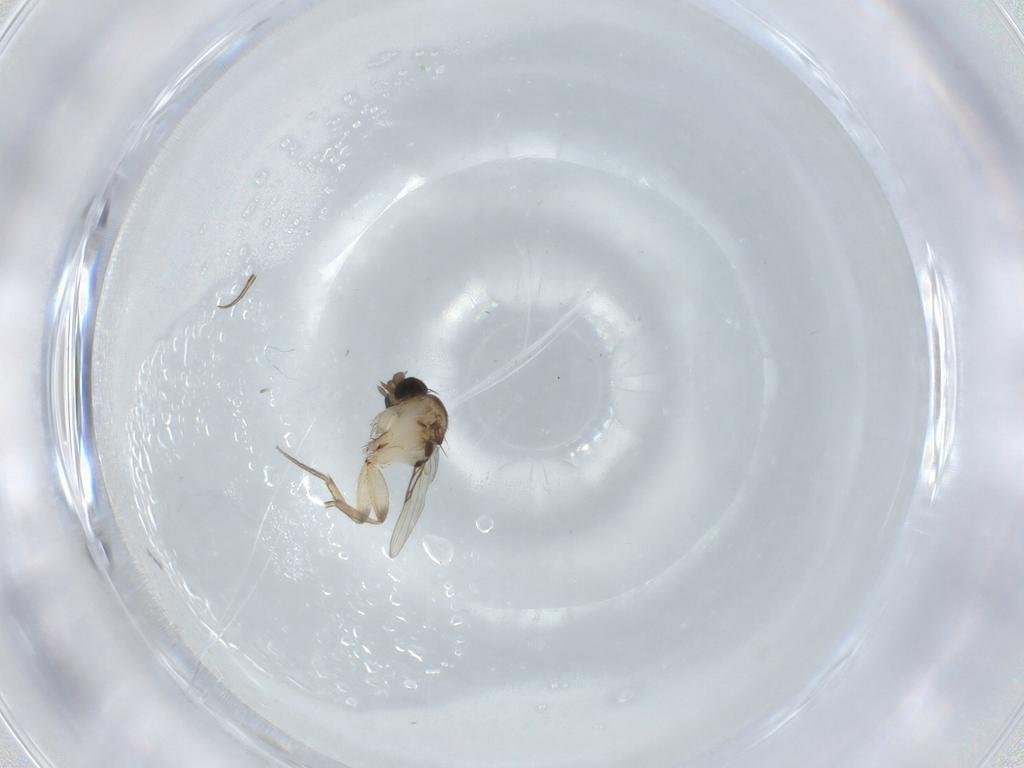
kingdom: Animalia
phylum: Arthropoda
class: Insecta
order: Diptera
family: Phoridae
